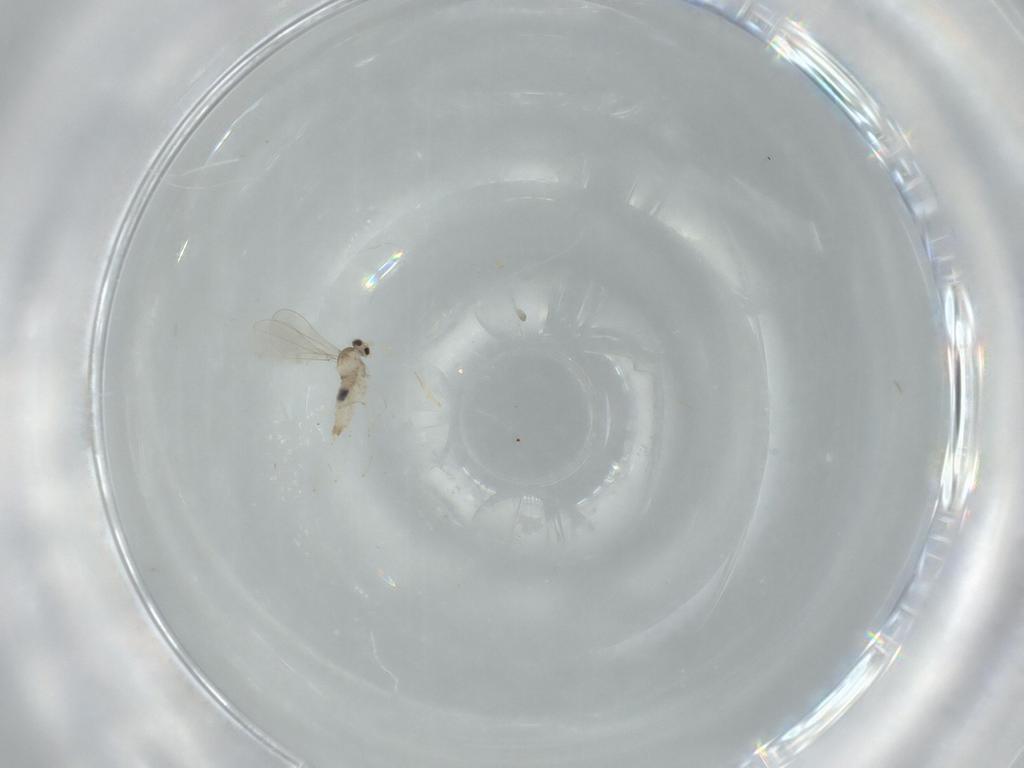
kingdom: Animalia
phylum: Arthropoda
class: Insecta
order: Diptera
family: Cecidomyiidae
